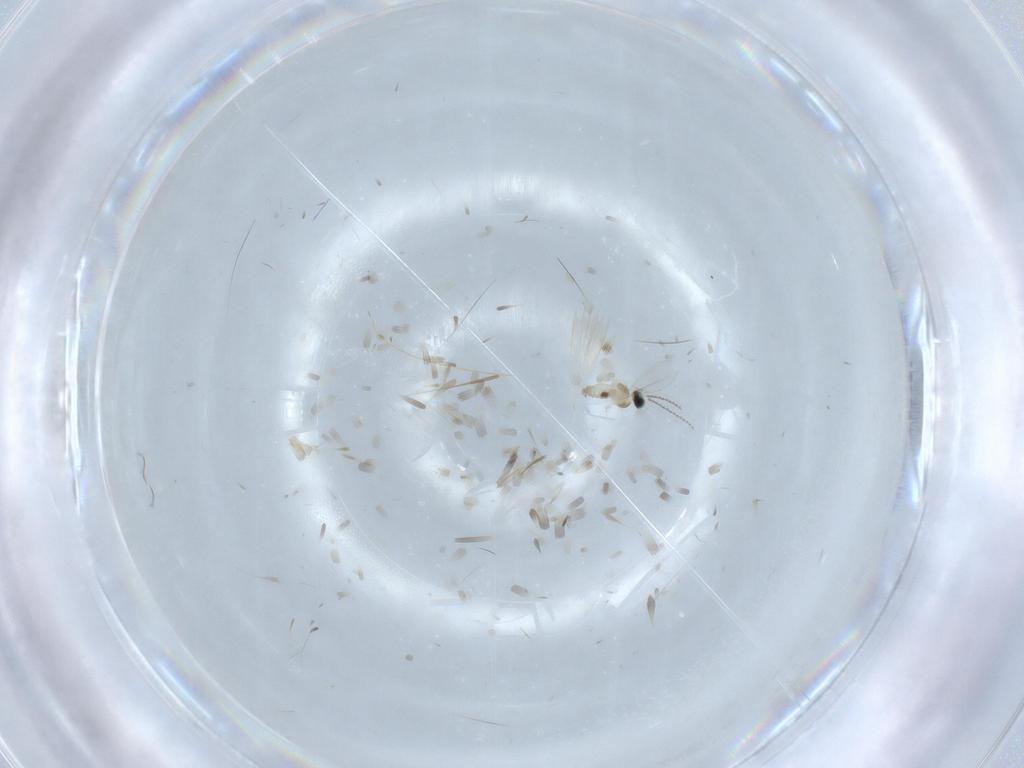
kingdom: Animalia
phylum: Arthropoda
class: Insecta
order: Diptera
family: Cecidomyiidae
